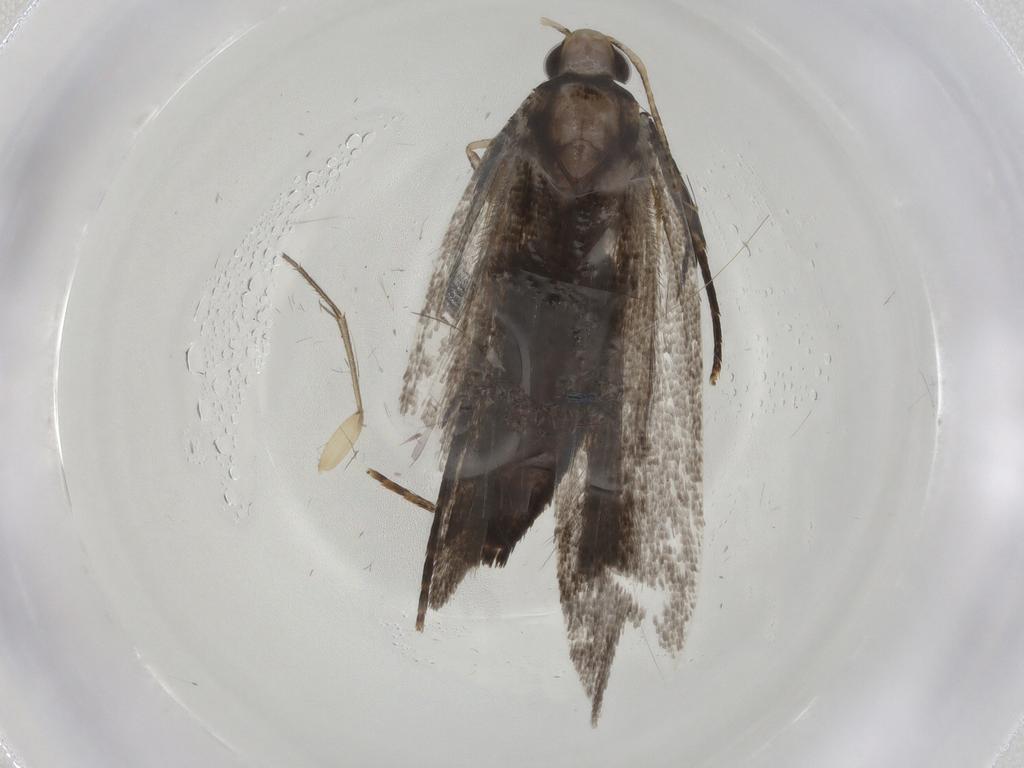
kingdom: Animalia
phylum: Arthropoda
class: Insecta
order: Lepidoptera
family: Gelechiidae
